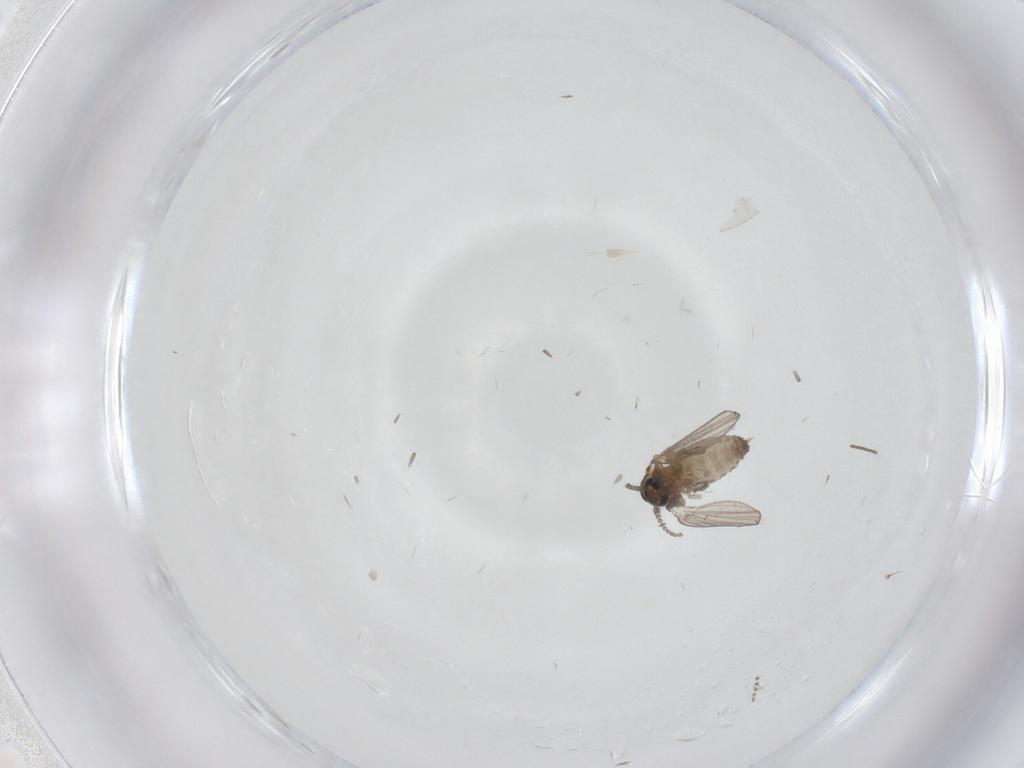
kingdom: Animalia
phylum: Arthropoda
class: Insecta
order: Diptera
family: Psychodidae
